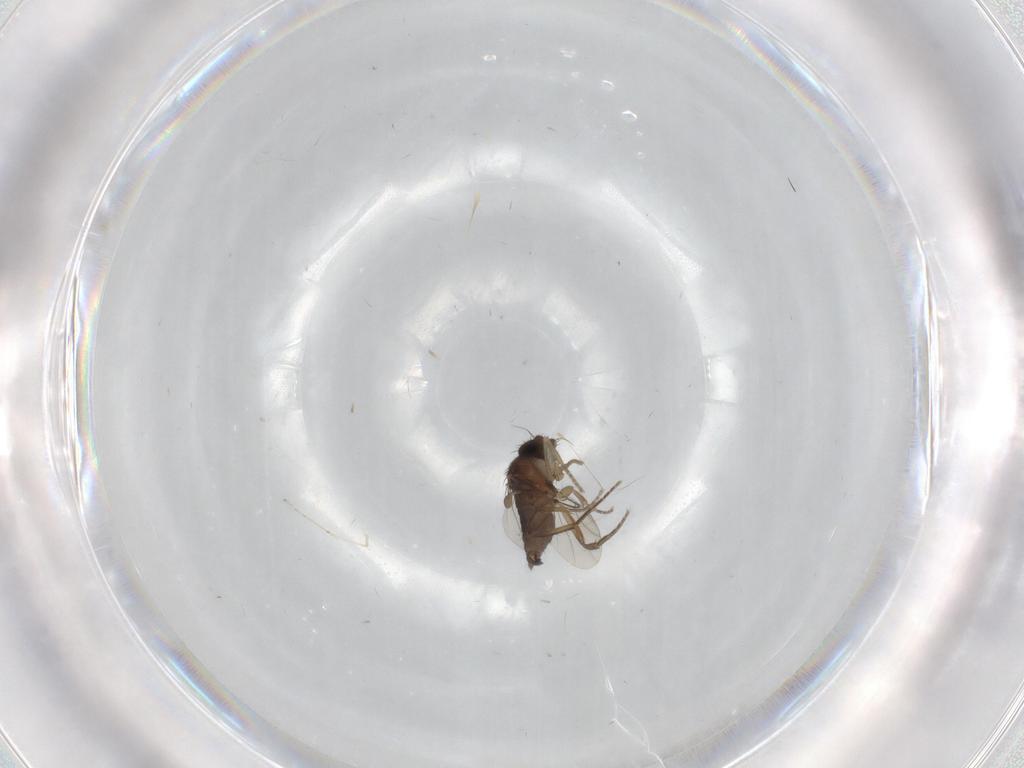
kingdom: Animalia
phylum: Arthropoda
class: Insecta
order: Diptera
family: Phoridae
